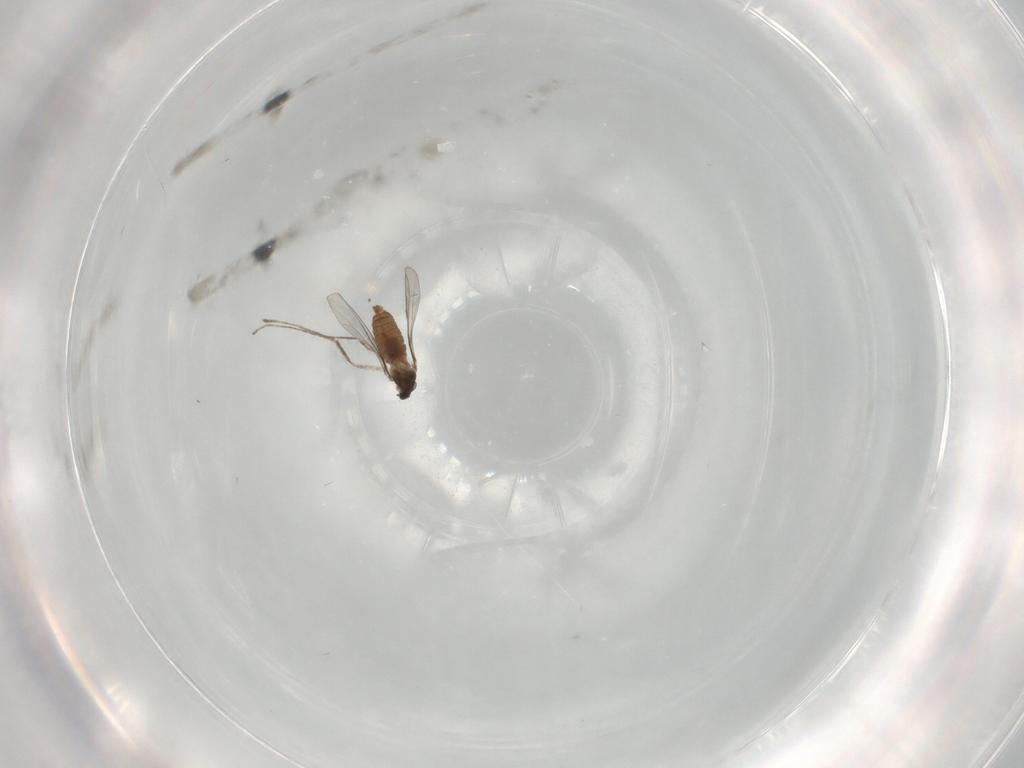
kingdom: Animalia
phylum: Arthropoda
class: Insecta
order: Diptera
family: Cecidomyiidae
